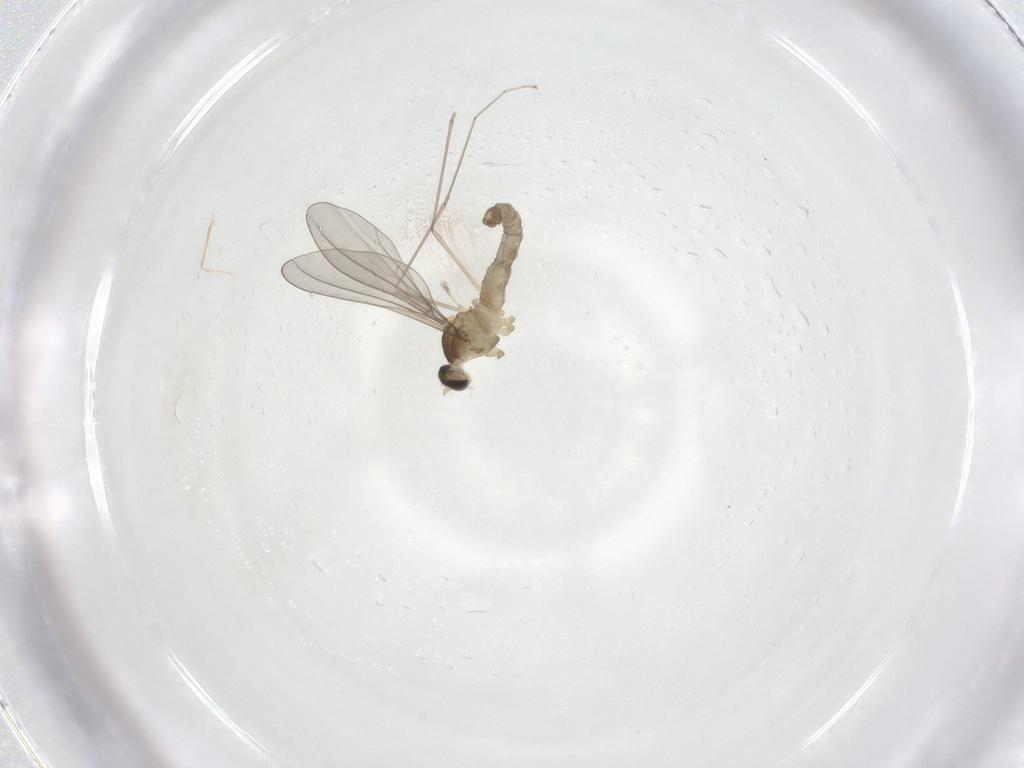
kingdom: Animalia
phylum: Arthropoda
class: Insecta
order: Diptera
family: Cecidomyiidae
